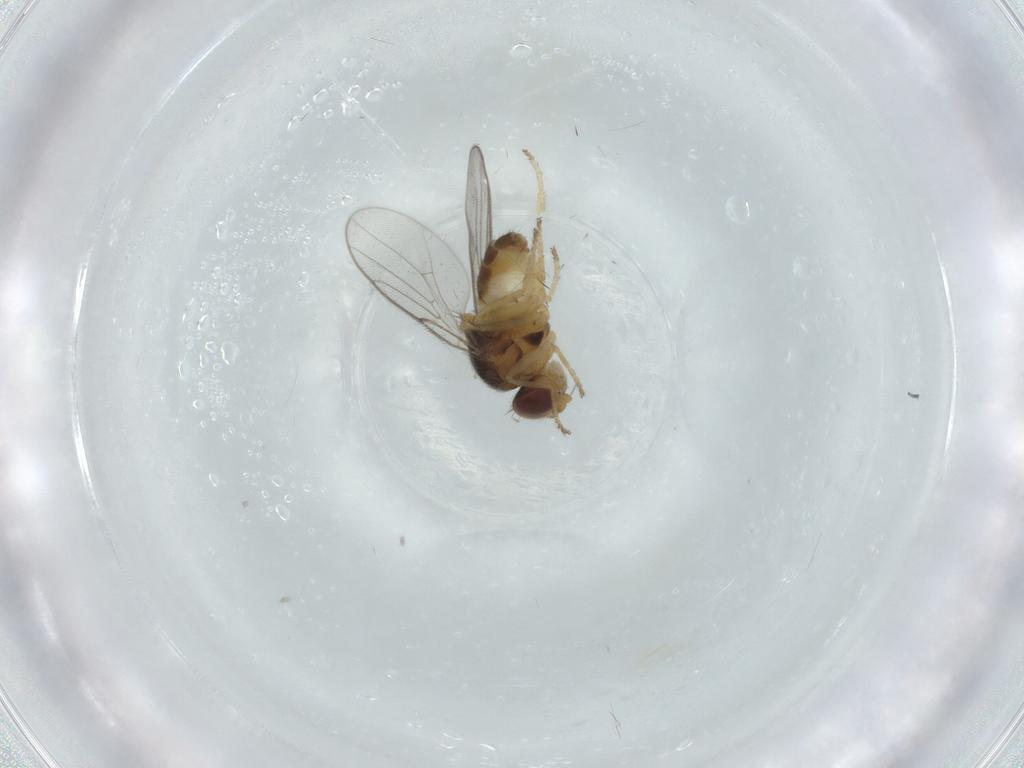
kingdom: Animalia
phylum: Arthropoda
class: Insecta
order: Diptera
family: Chloropidae
